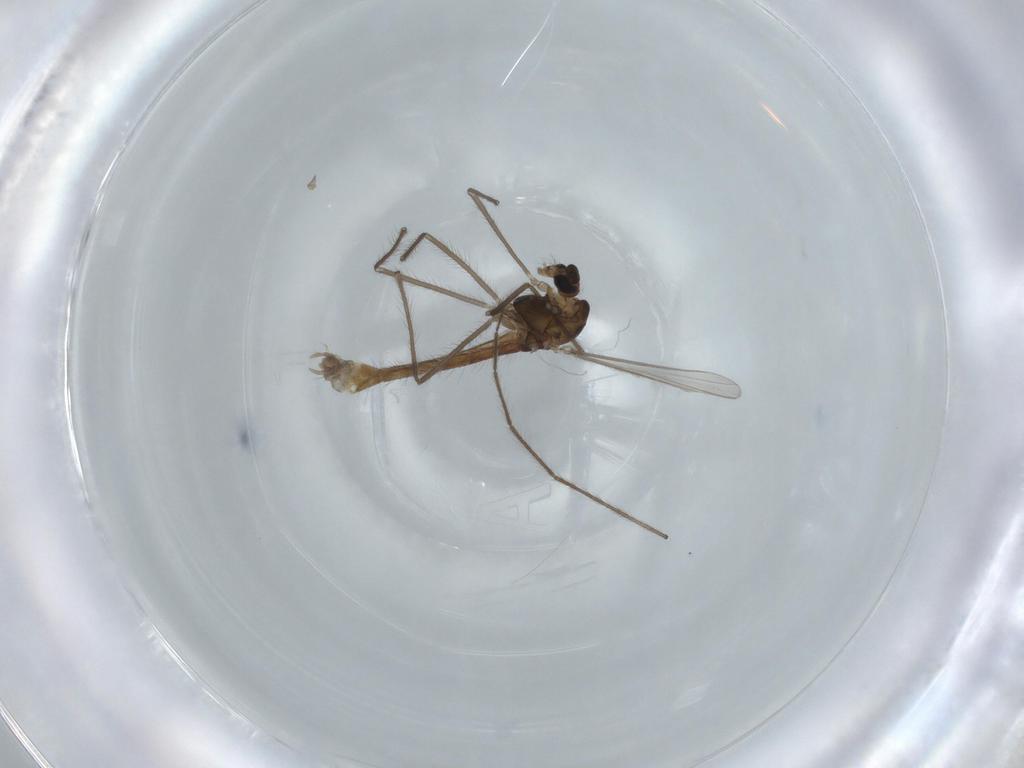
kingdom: Animalia
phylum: Arthropoda
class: Insecta
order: Diptera
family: Chironomidae
